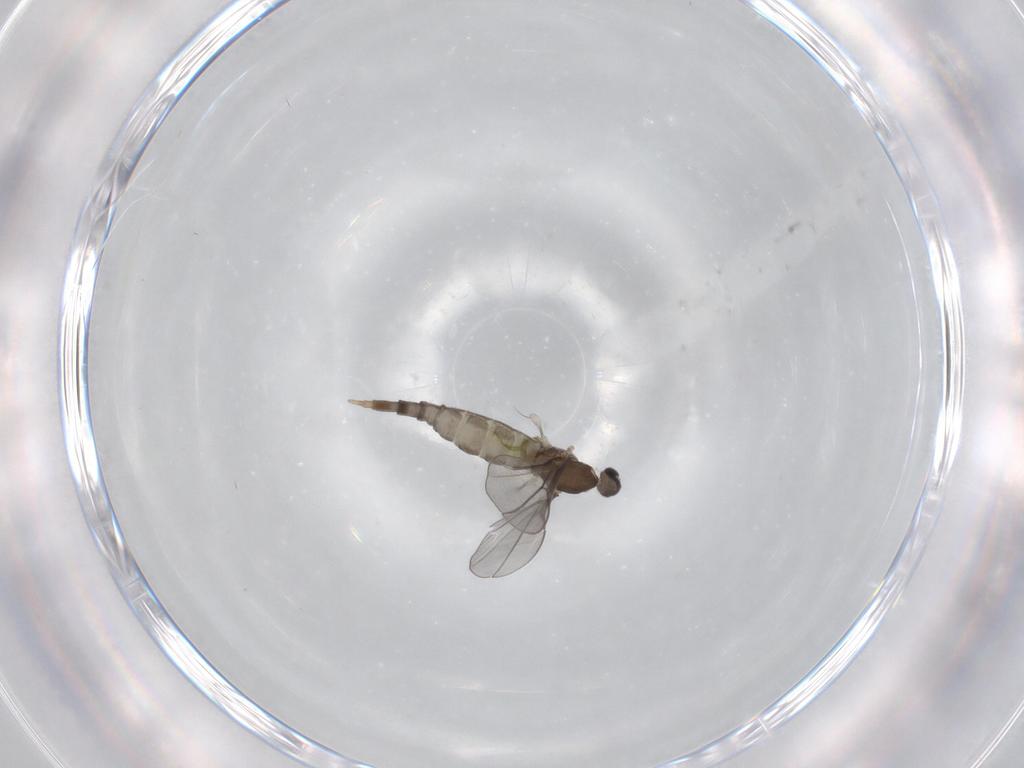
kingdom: Animalia
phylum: Arthropoda
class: Insecta
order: Diptera
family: Cecidomyiidae
